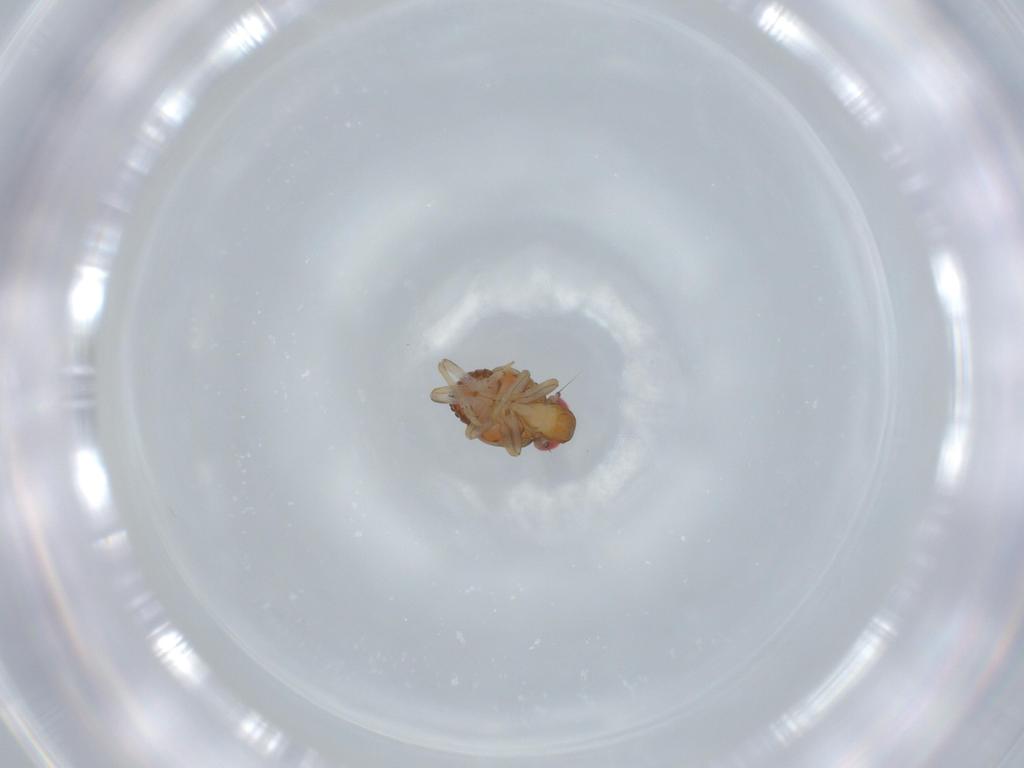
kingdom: Animalia
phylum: Arthropoda
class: Insecta
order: Hemiptera
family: Issidae
